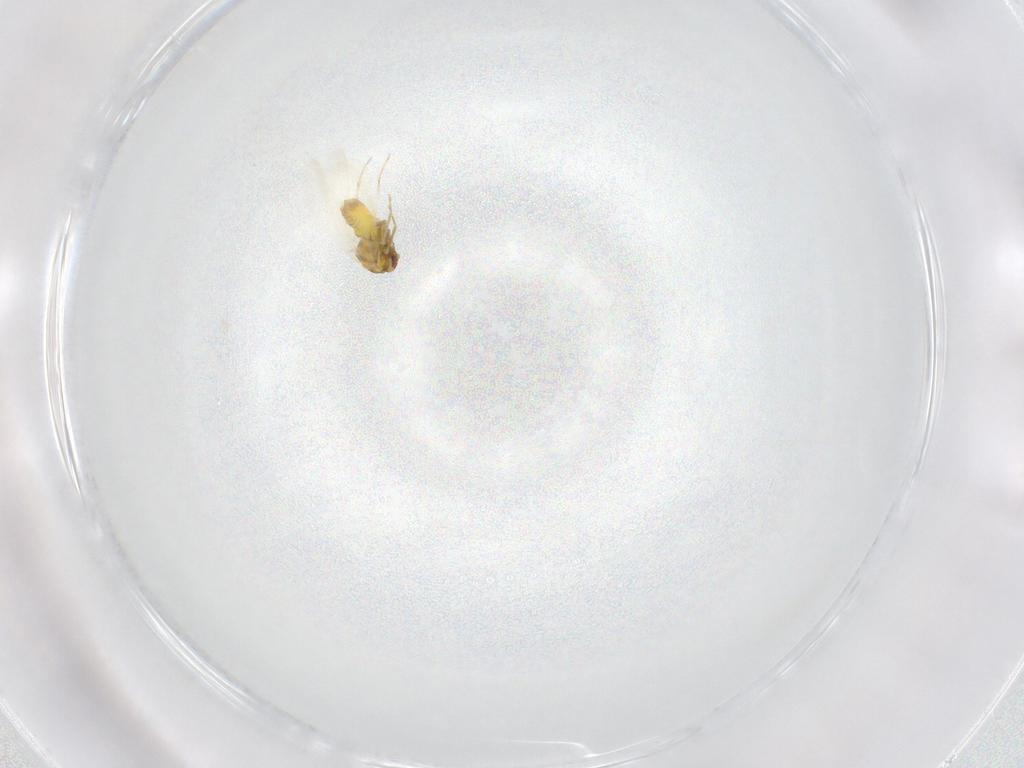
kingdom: Animalia
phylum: Arthropoda
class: Insecta
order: Hemiptera
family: Aleyrodidae
